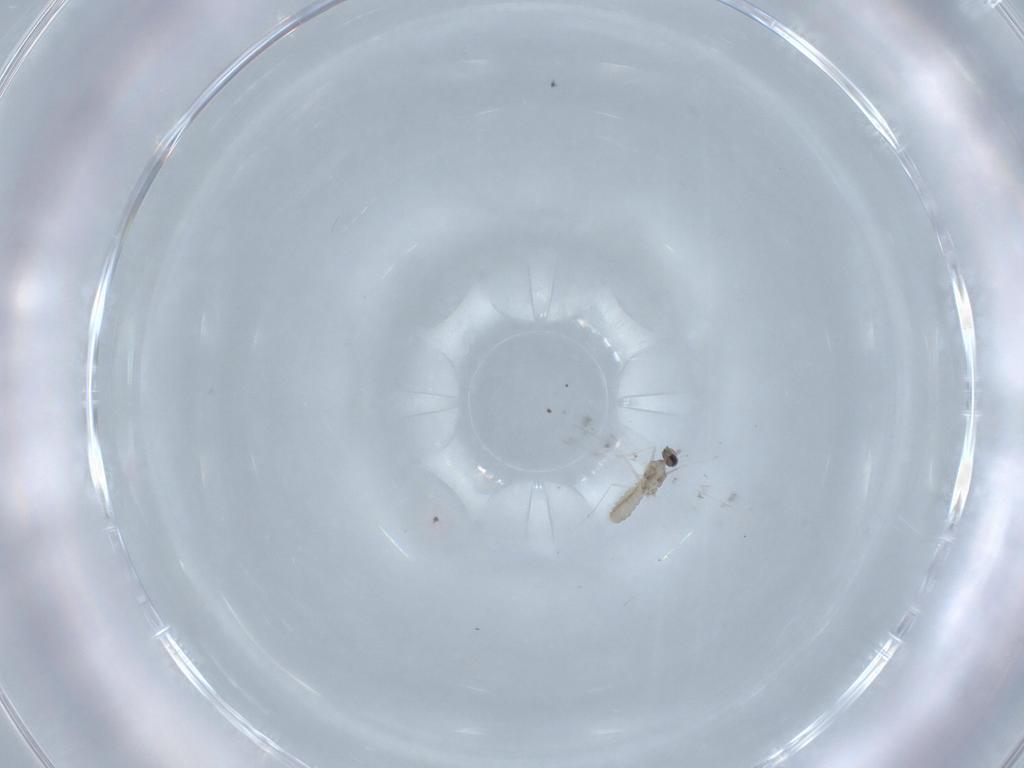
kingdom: Animalia
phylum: Arthropoda
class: Insecta
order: Diptera
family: Cecidomyiidae
